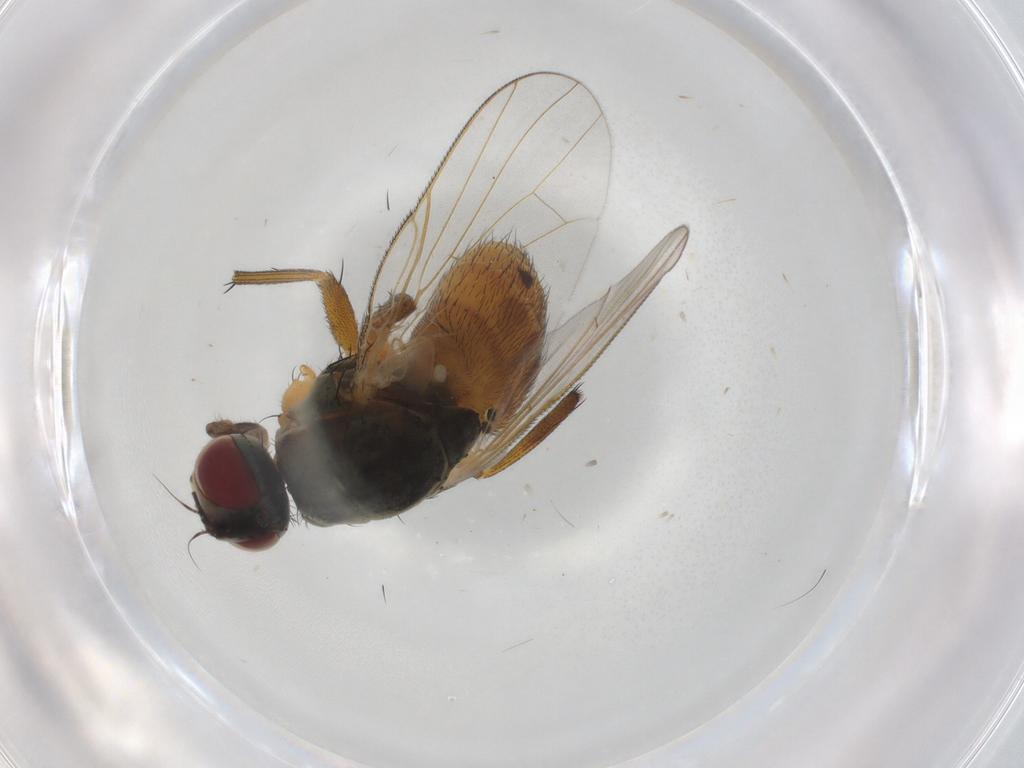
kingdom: Animalia
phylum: Arthropoda
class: Insecta
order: Diptera
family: Muscidae
